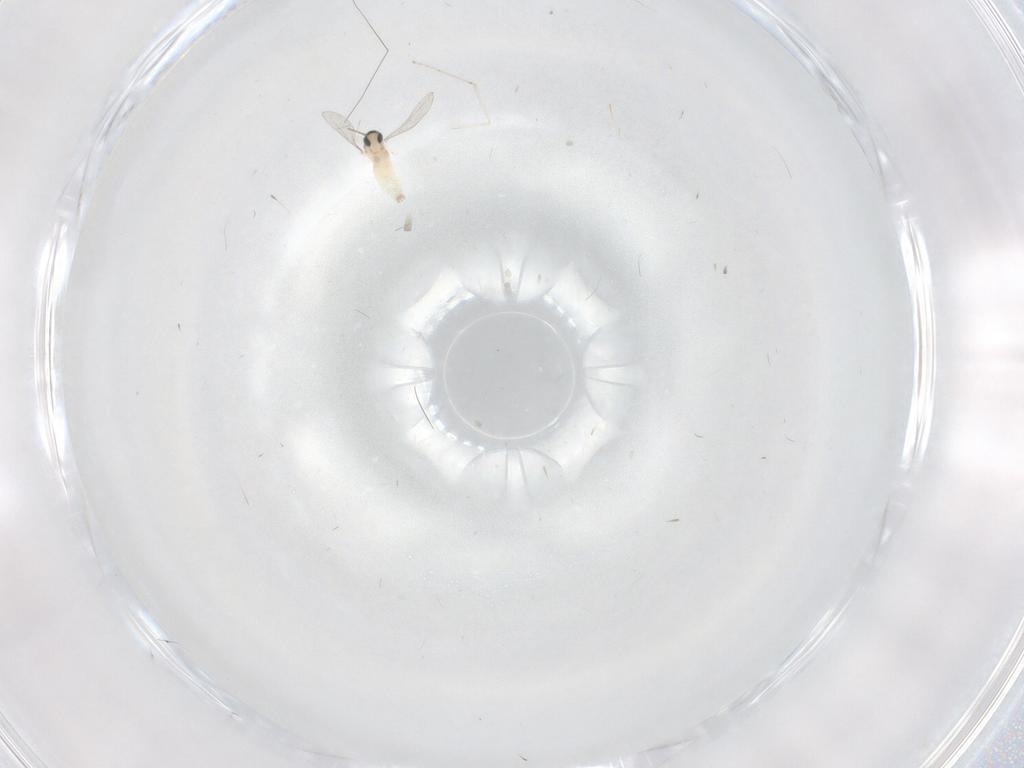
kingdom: Animalia
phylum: Arthropoda
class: Insecta
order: Diptera
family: Cecidomyiidae
